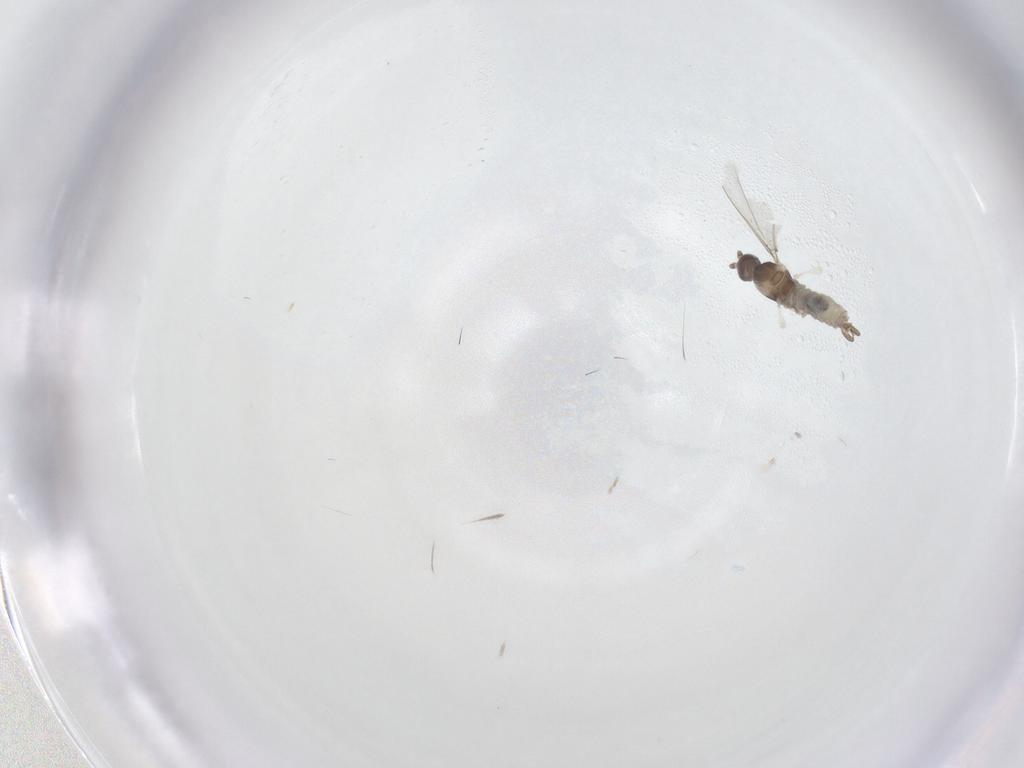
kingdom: Animalia
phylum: Arthropoda
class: Insecta
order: Diptera
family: Cecidomyiidae
